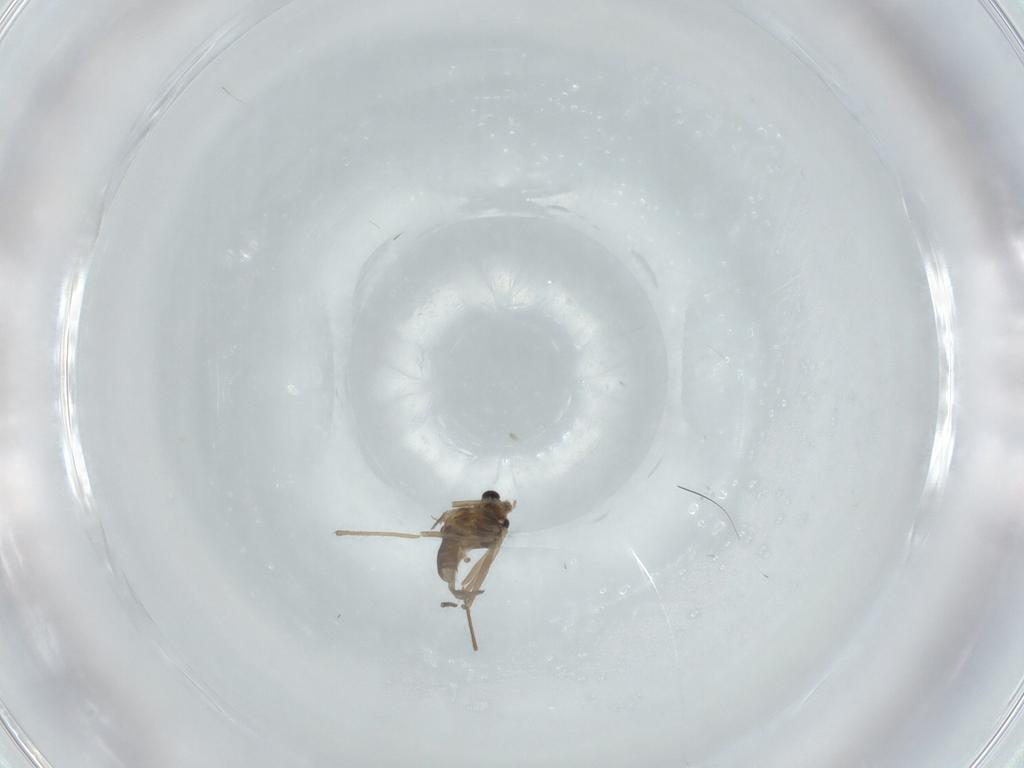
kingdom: Animalia
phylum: Arthropoda
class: Insecta
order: Diptera
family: Chironomidae
